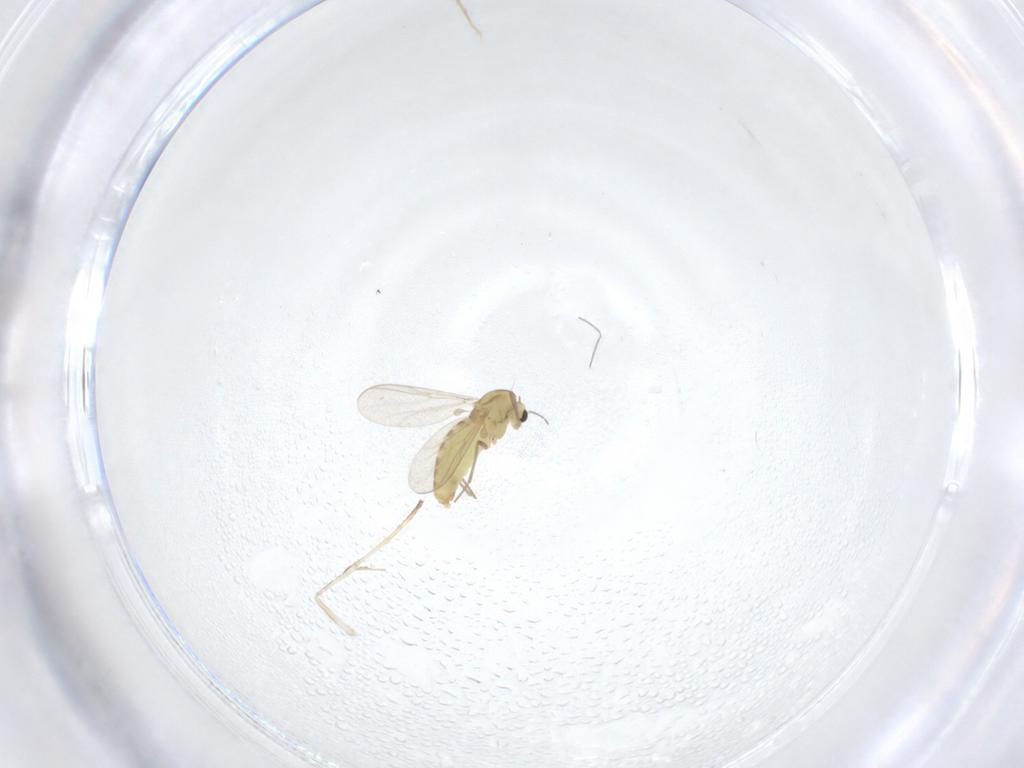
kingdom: Animalia
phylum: Arthropoda
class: Insecta
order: Diptera
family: Chironomidae
